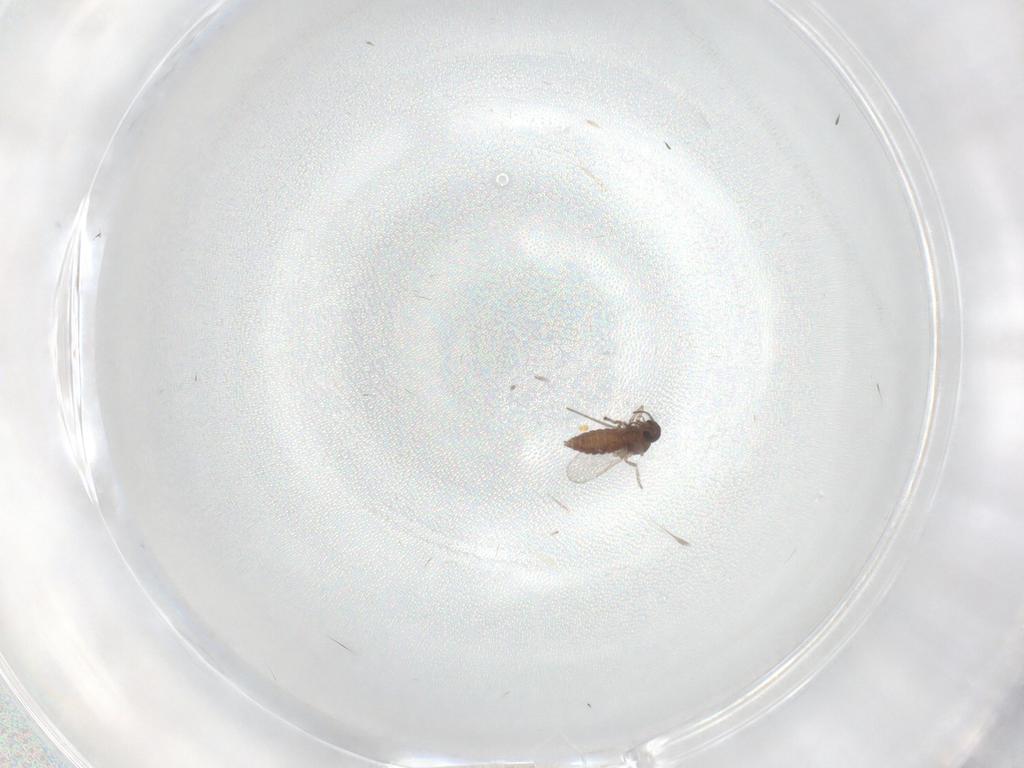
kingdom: Animalia
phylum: Arthropoda
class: Insecta
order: Diptera
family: Ceratopogonidae
